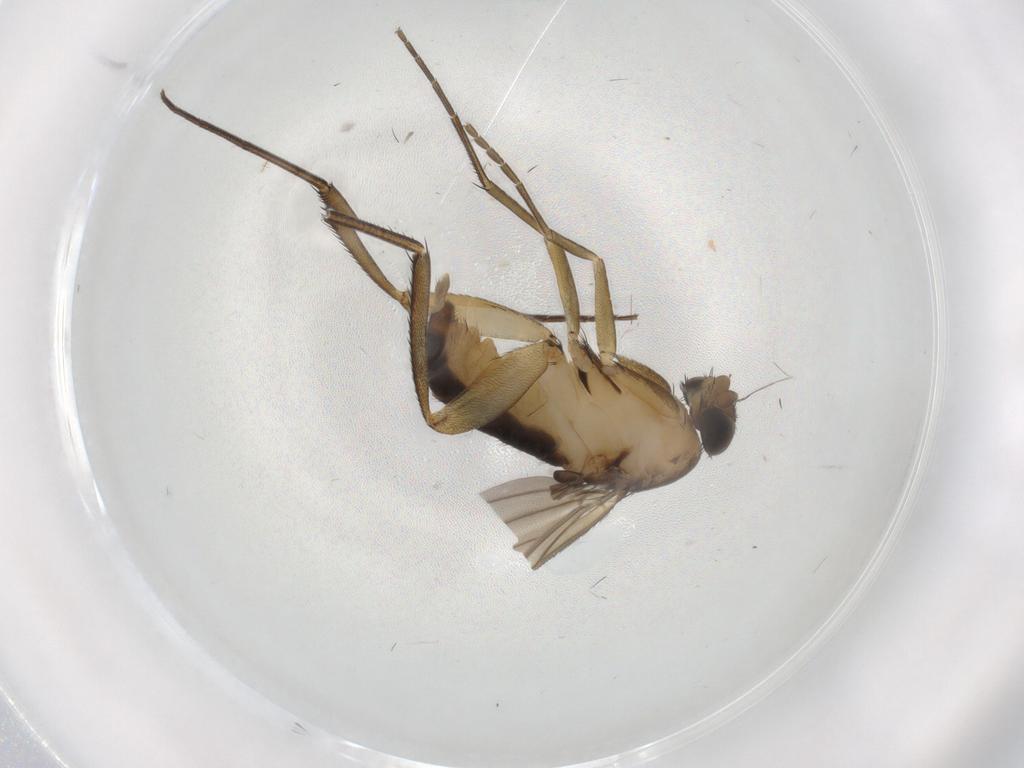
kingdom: Animalia
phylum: Arthropoda
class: Insecta
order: Diptera
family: Phoridae
